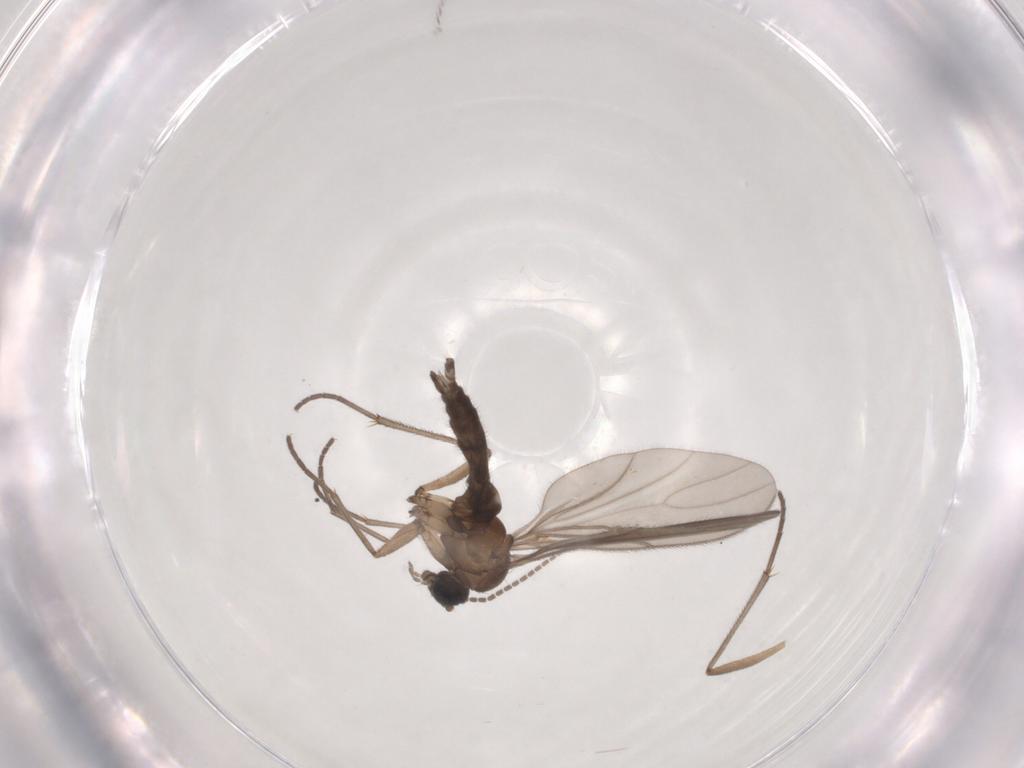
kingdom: Animalia
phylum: Arthropoda
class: Insecta
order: Diptera
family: Sciaridae
